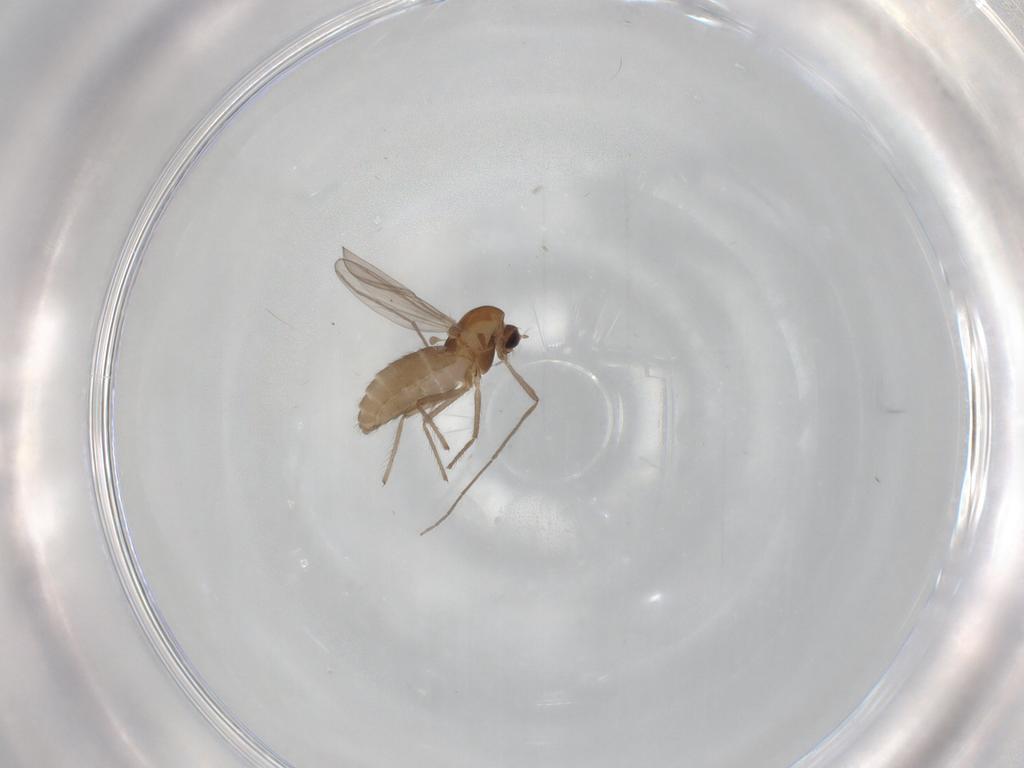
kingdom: Animalia
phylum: Arthropoda
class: Insecta
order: Diptera
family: Chironomidae
